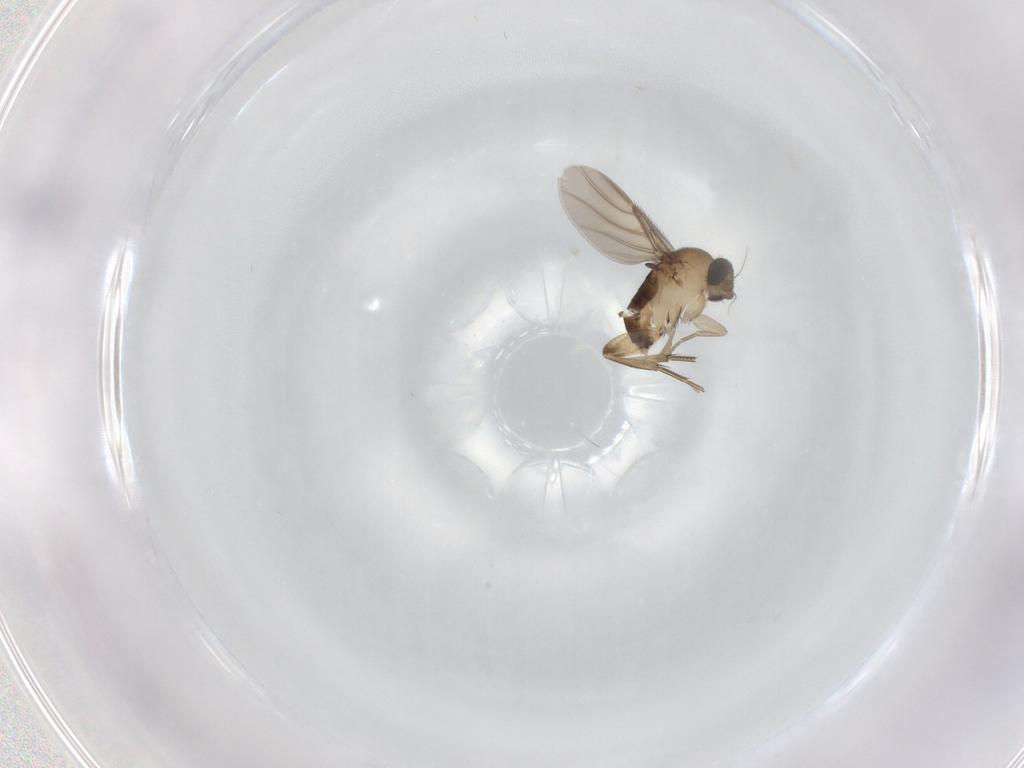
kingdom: Animalia
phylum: Arthropoda
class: Insecta
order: Diptera
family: Phoridae
